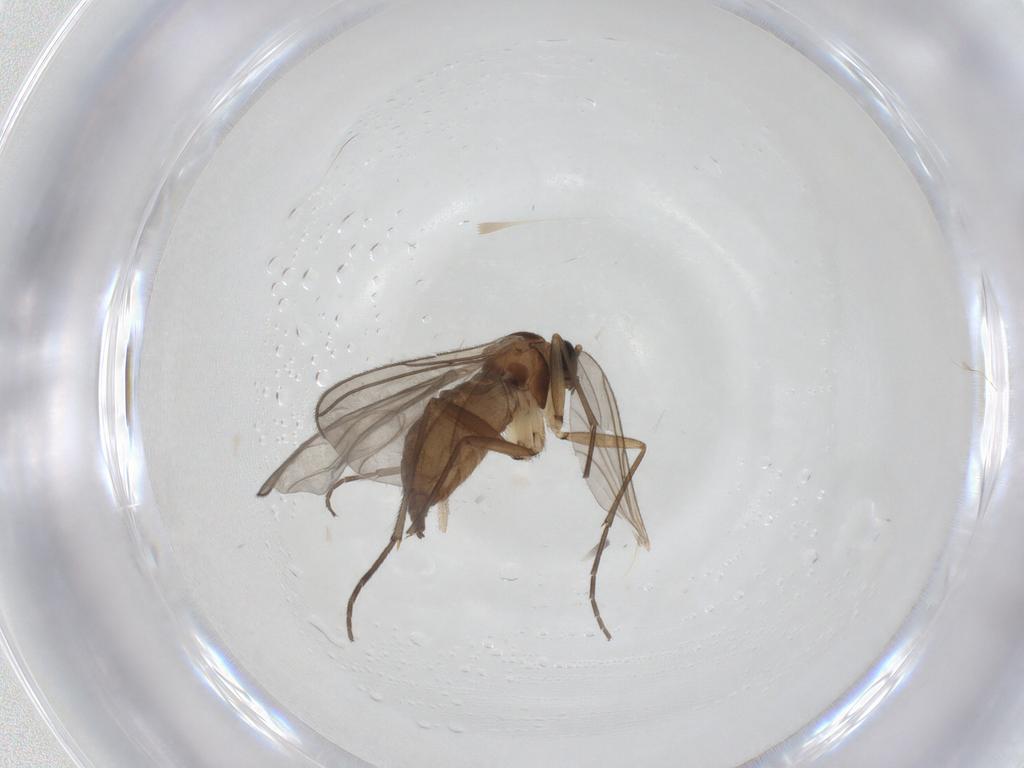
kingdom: Animalia
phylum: Arthropoda
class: Insecta
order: Diptera
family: Sciaridae
